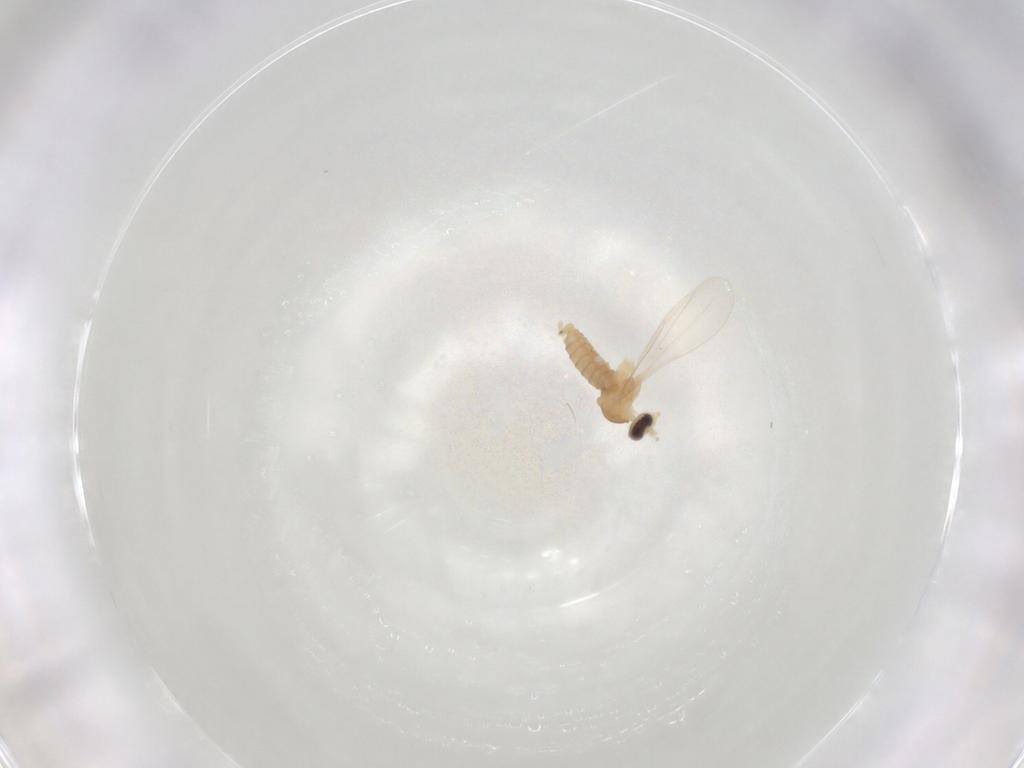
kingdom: Animalia
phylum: Arthropoda
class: Insecta
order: Diptera
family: Cecidomyiidae
